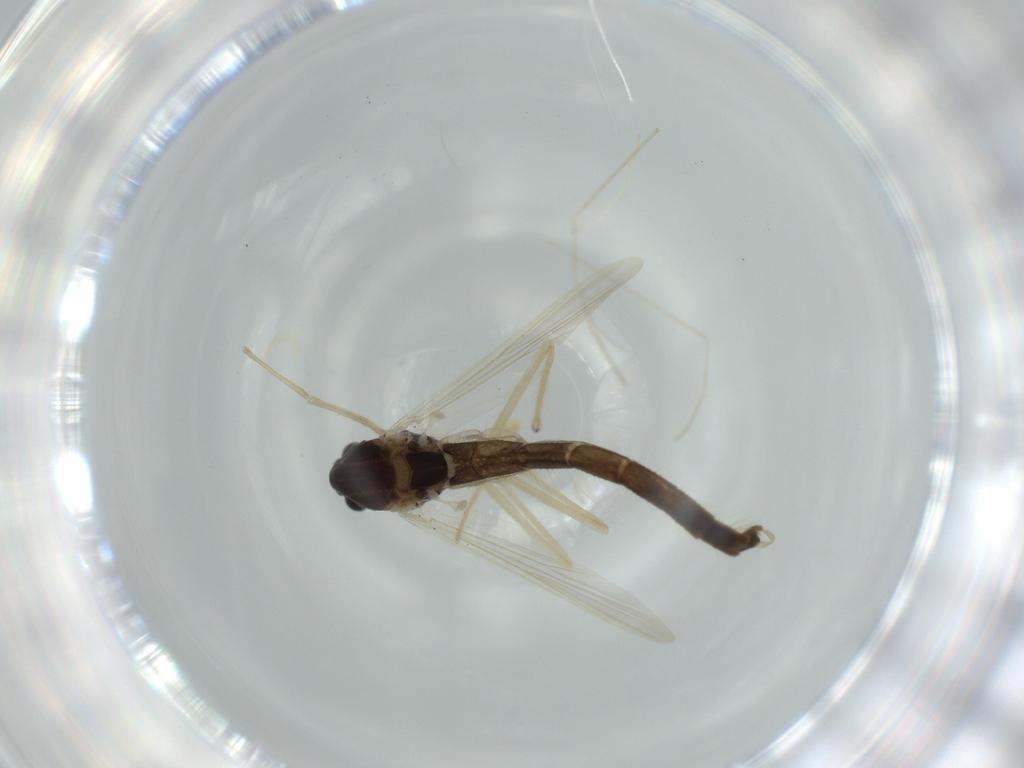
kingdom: Animalia
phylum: Arthropoda
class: Insecta
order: Diptera
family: Chironomidae
